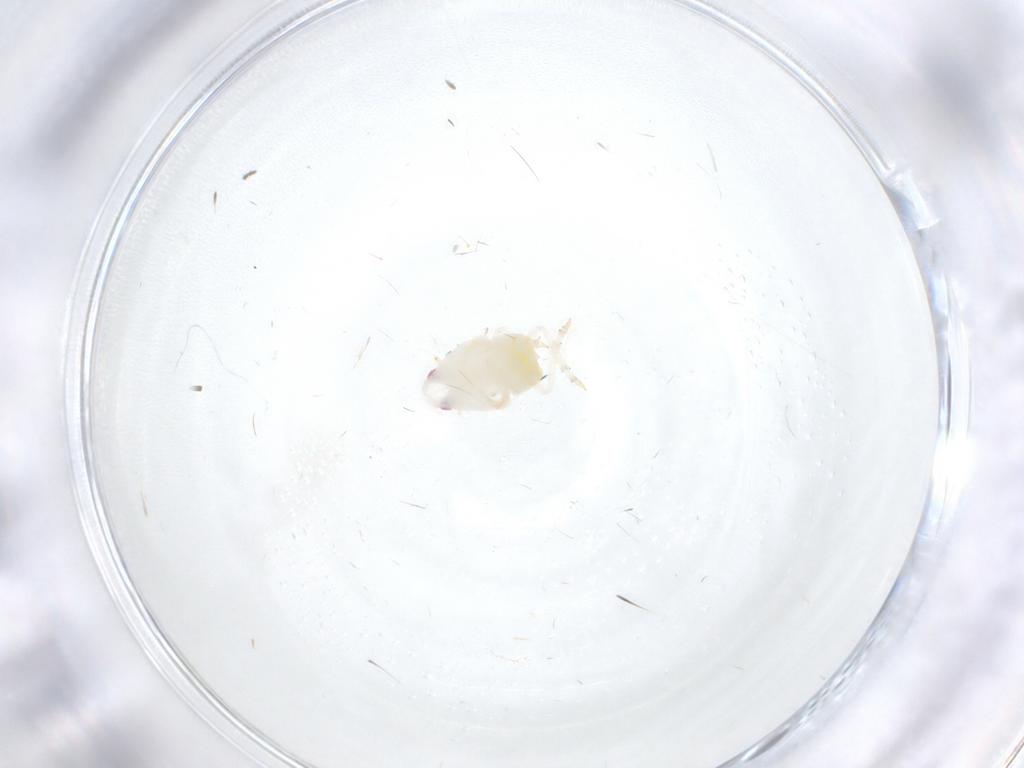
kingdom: Animalia
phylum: Arthropoda
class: Insecta
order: Hemiptera
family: Flatidae
